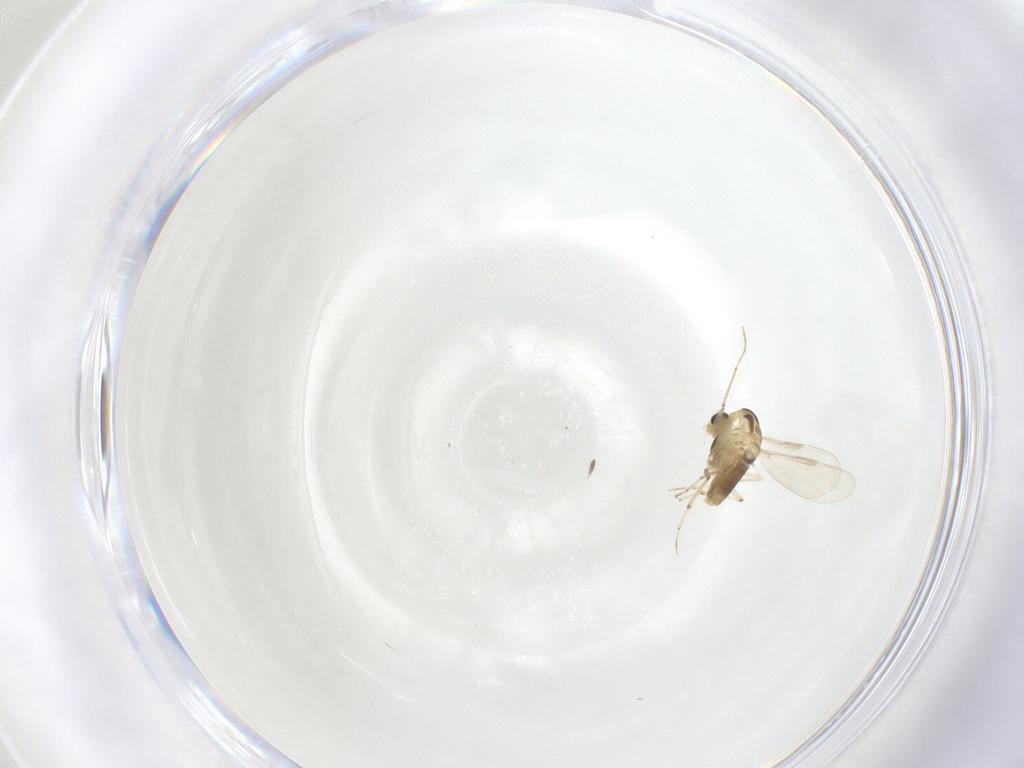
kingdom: Animalia
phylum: Arthropoda
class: Insecta
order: Diptera
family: Chironomidae
